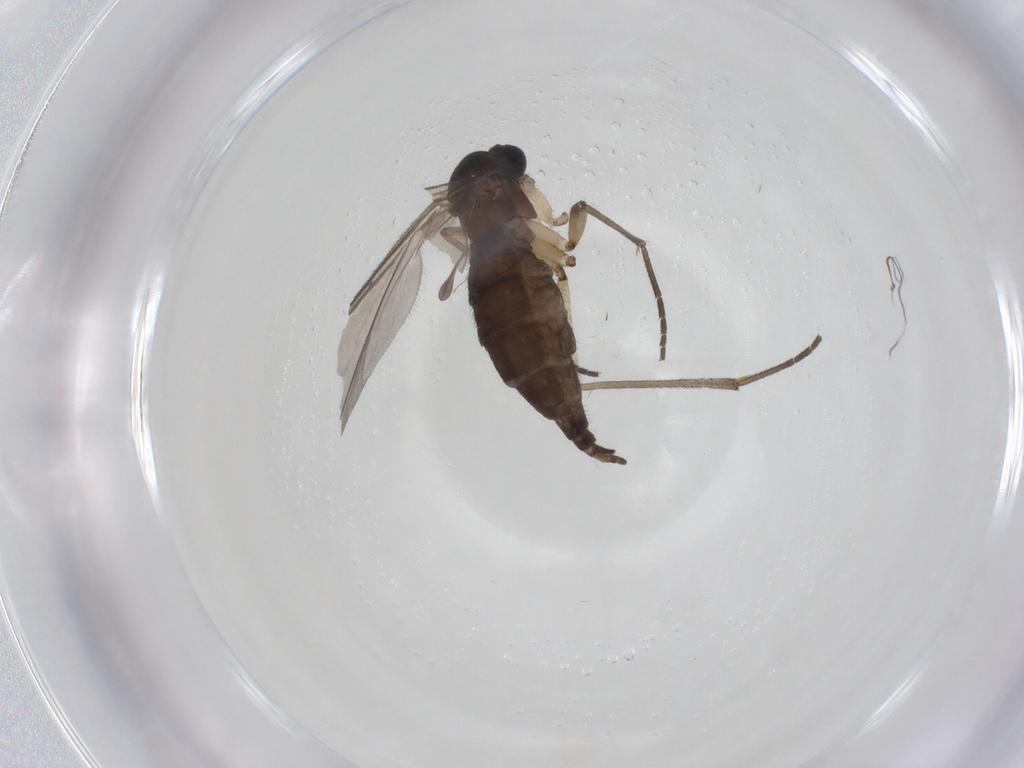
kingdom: Animalia
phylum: Arthropoda
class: Insecta
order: Diptera
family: Sciaridae
